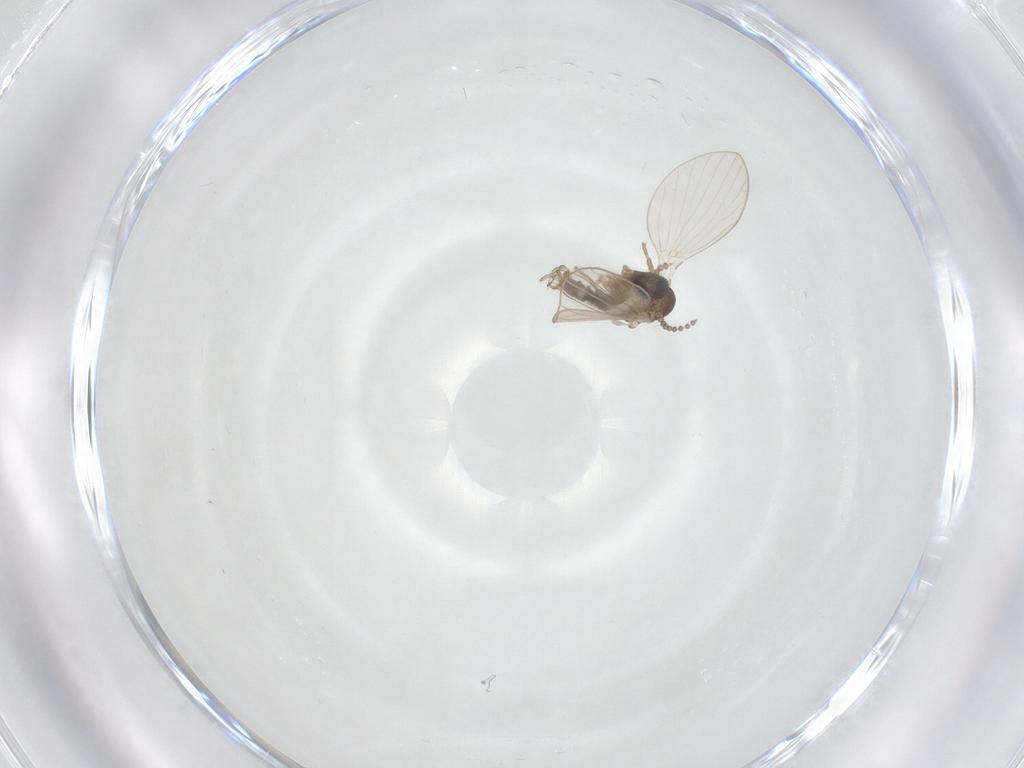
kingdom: Animalia
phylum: Arthropoda
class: Insecta
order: Diptera
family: Psychodidae
